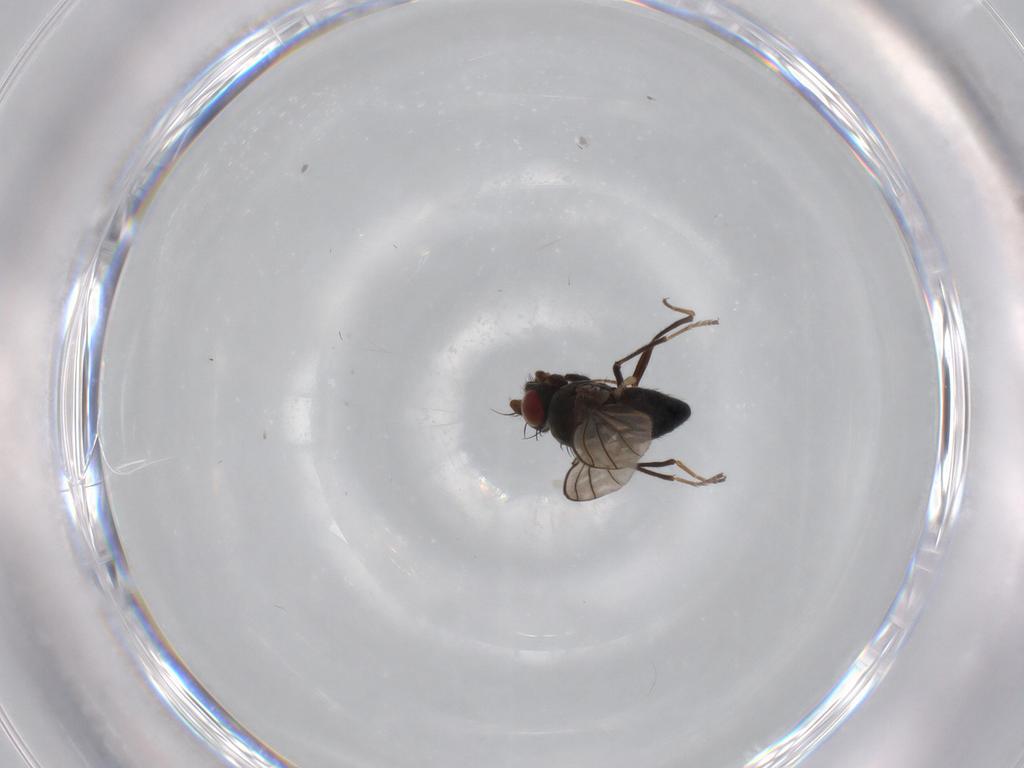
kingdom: Animalia
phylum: Arthropoda
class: Insecta
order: Diptera
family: Ephydridae
